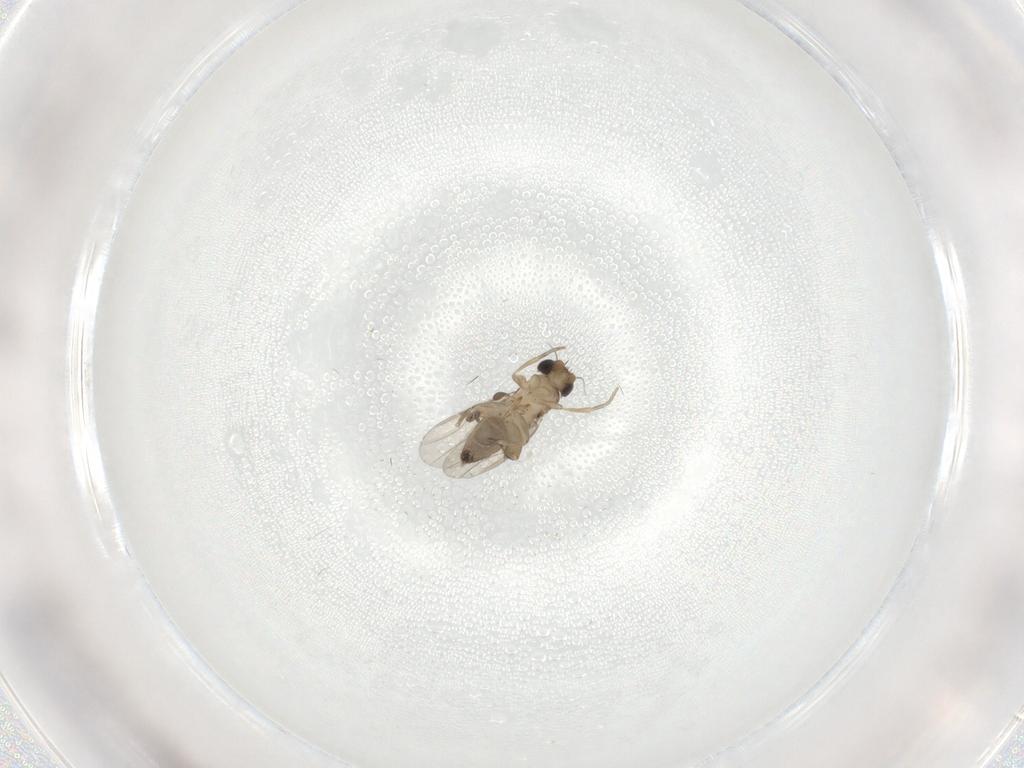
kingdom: Animalia
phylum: Arthropoda
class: Insecta
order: Diptera
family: Phoridae
